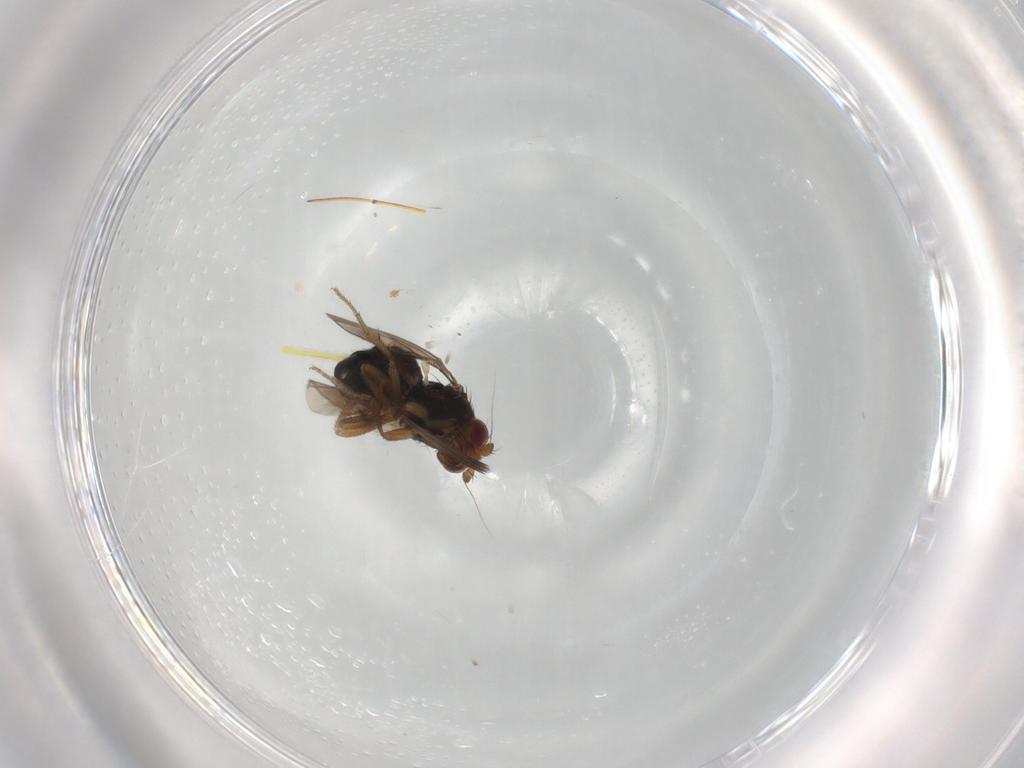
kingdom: Animalia
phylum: Arthropoda
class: Insecta
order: Diptera
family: Sphaeroceridae
